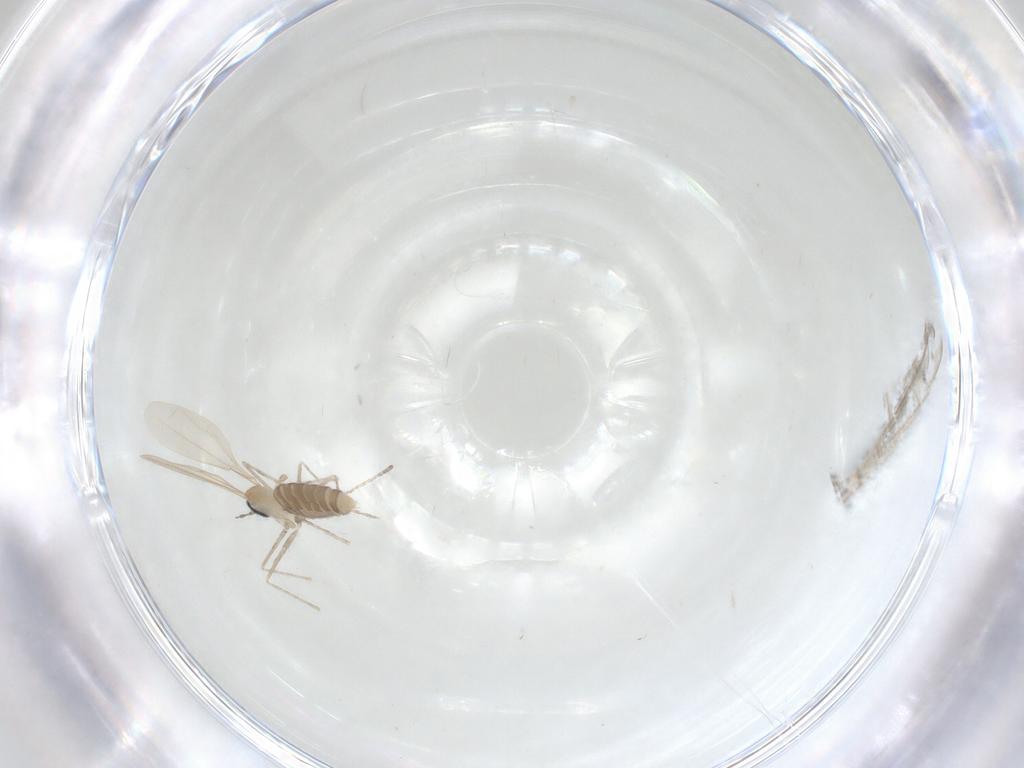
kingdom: Animalia
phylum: Arthropoda
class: Insecta
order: Diptera
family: Cecidomyiidae
